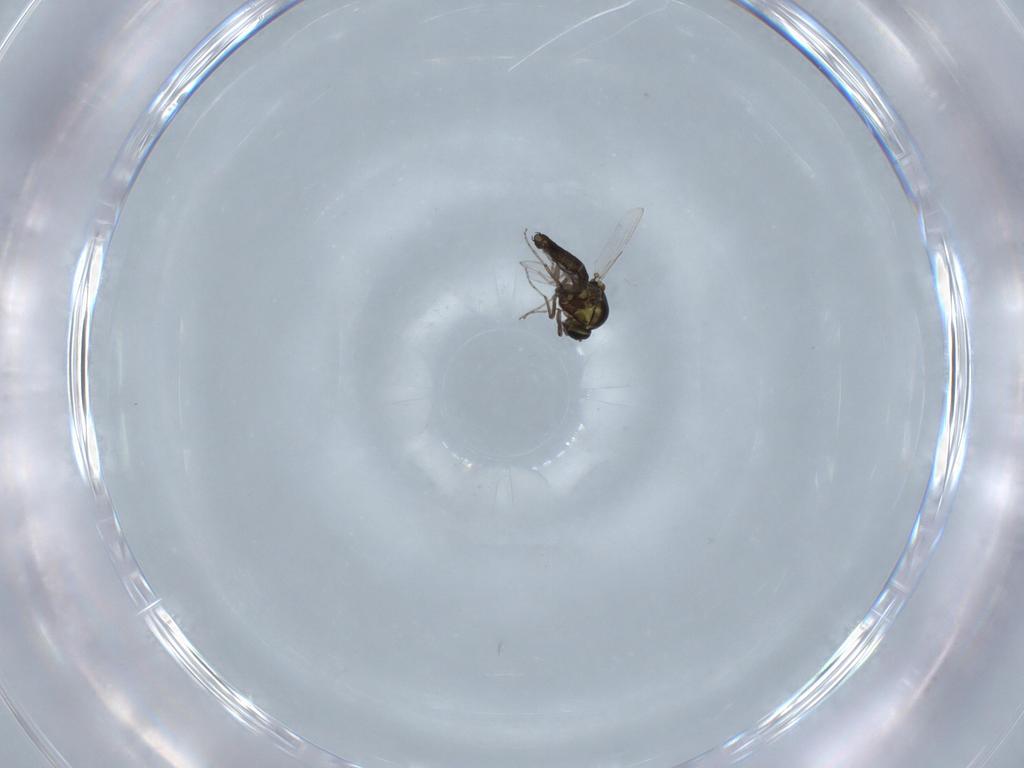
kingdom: Animalia
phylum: Arthropoda
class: Insecta
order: Diptera
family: Ceratopogonidae
